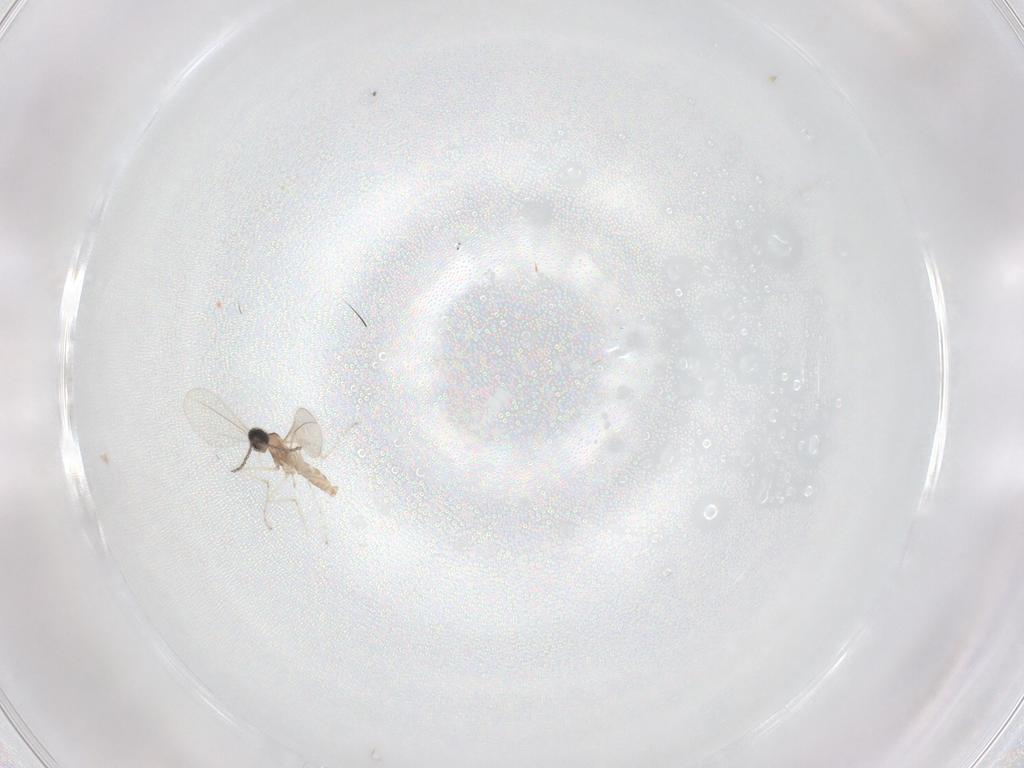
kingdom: Animalia
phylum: Arthropoda
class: Insecta
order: Diptera
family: Cecidomyiidae
